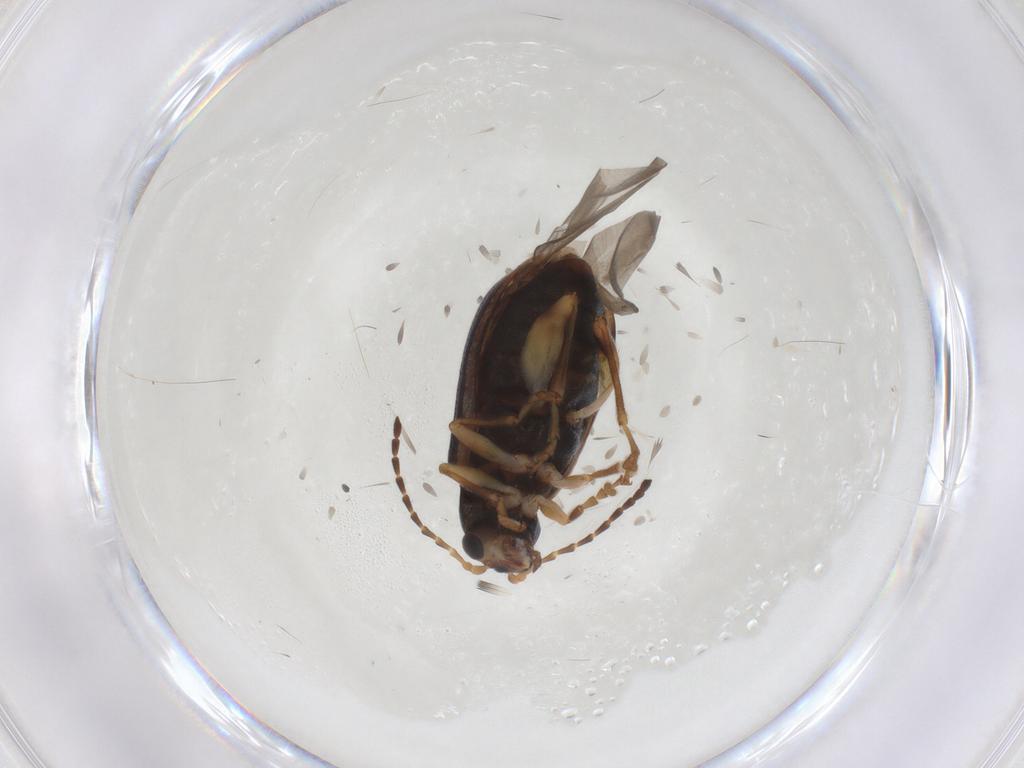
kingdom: Animalia
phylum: Arthropoda
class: Insecta
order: Coleoptera
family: Chrysomelidae
